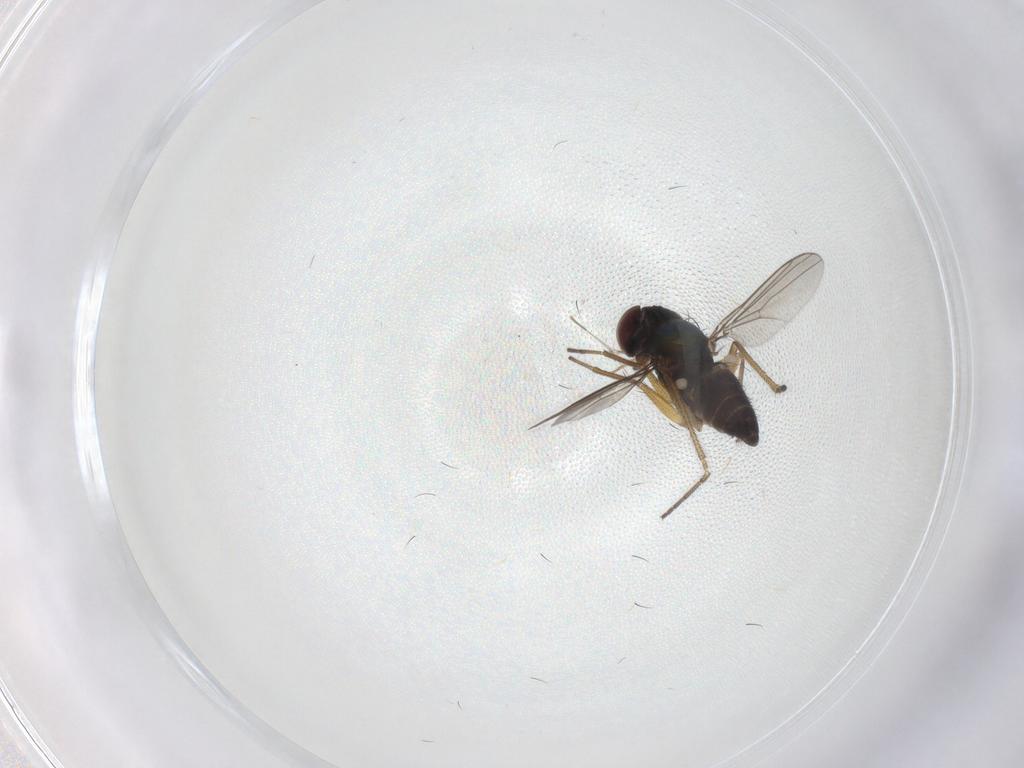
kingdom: Animalia
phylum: Arthropoda
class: Insecta
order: Diptera
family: Dolichopodidae
